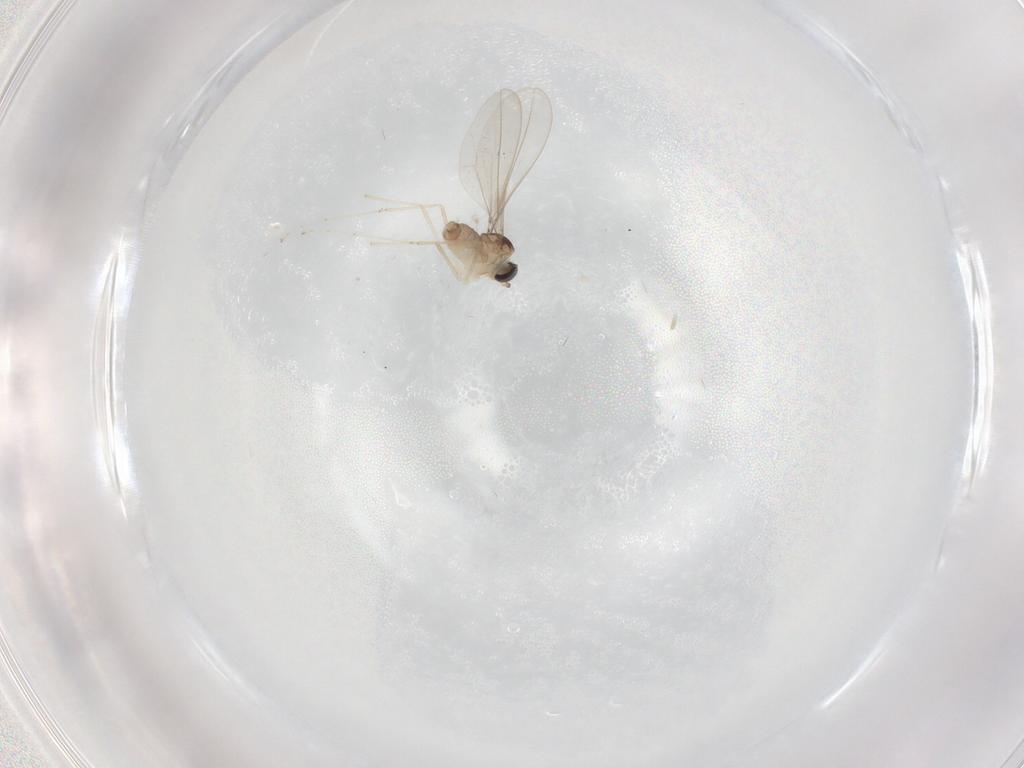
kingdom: Animalia
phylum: Arthropoda
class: Insecta
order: Diptera
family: Cecidomyiidae
